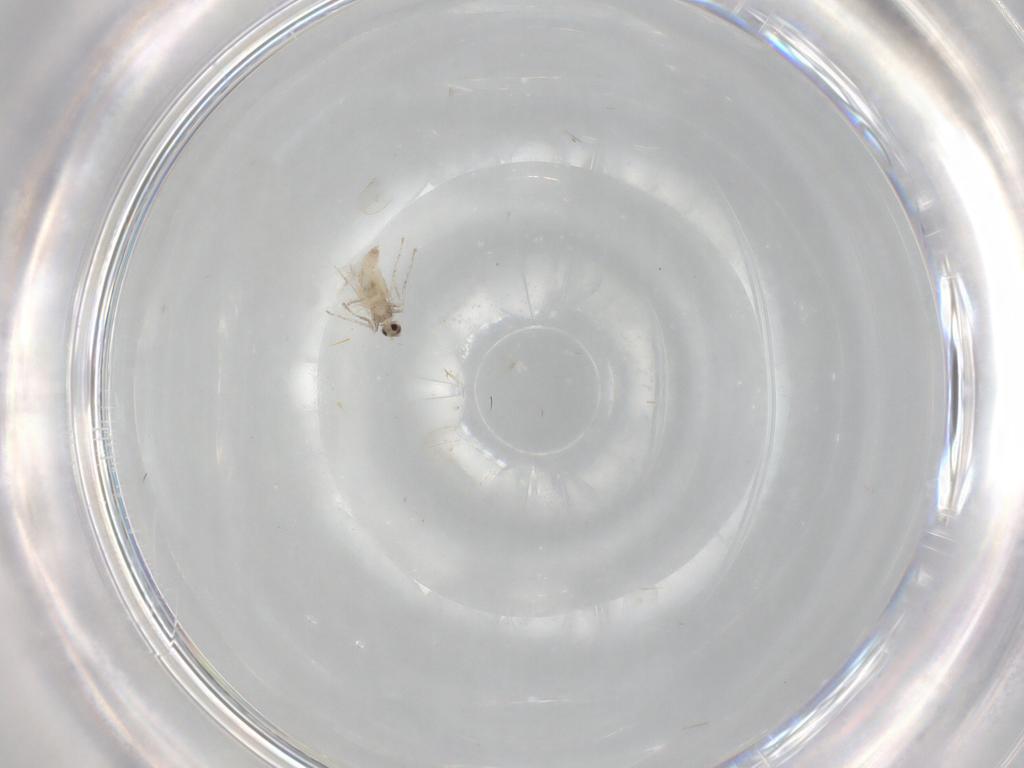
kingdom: Animalia
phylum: Arthropoda
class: Insecta
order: Diptera
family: Cecidomyiidae
